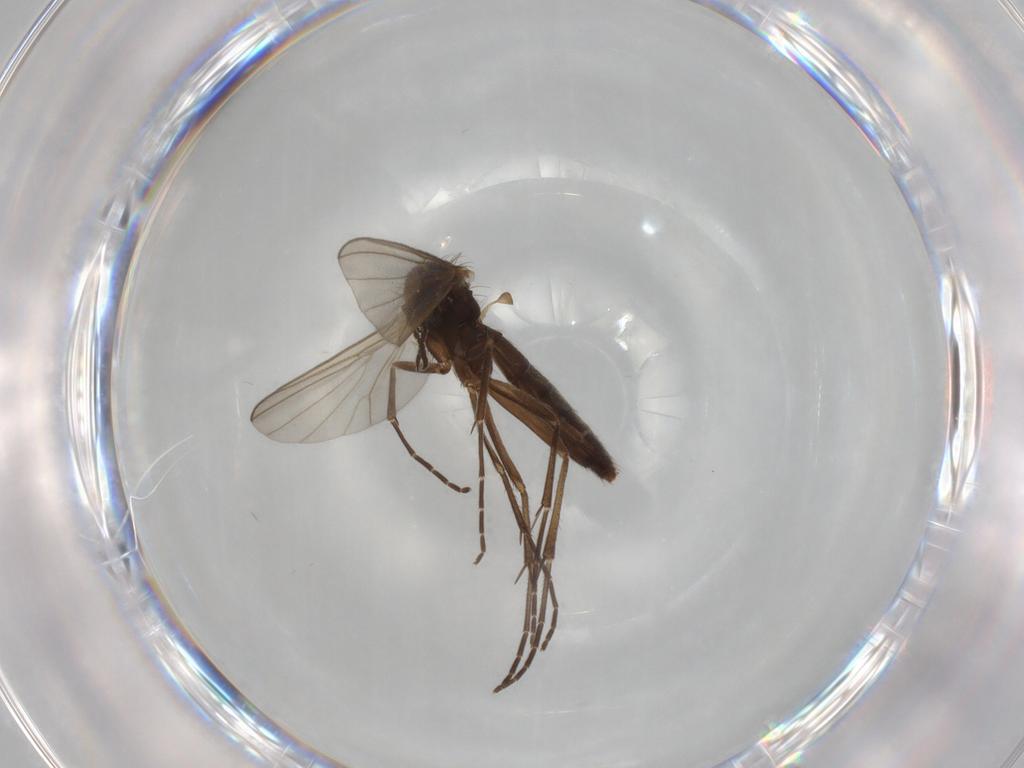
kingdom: Animalia
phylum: Arthropoda
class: Insecta
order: Diptera
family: Mycetophilidae
